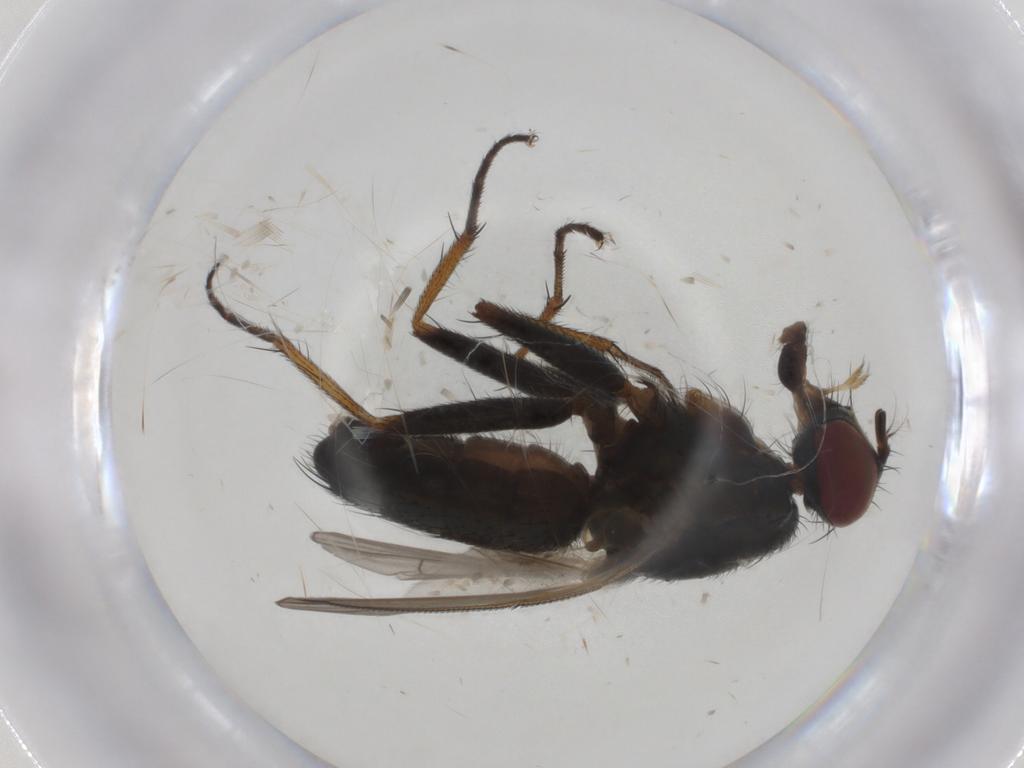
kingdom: Animalia
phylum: Arthropoda
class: Insecta
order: Diptera
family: Muscidae
